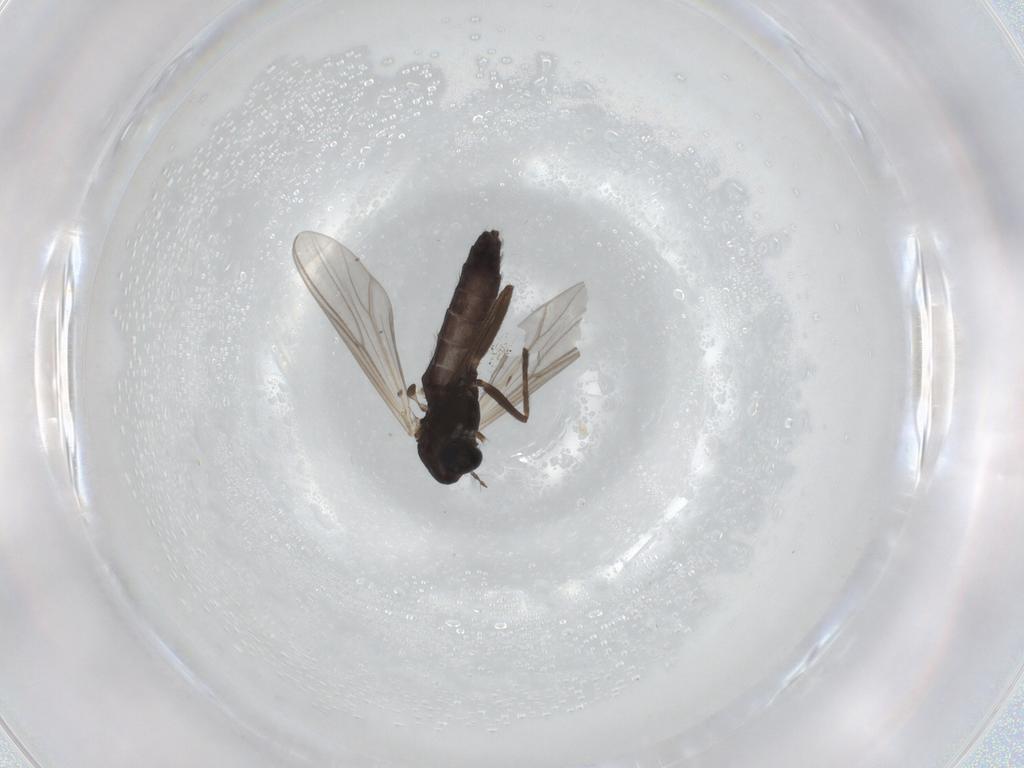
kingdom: Animalia
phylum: Arthropoda
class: Insecta
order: Diptera
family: Chironomidae
